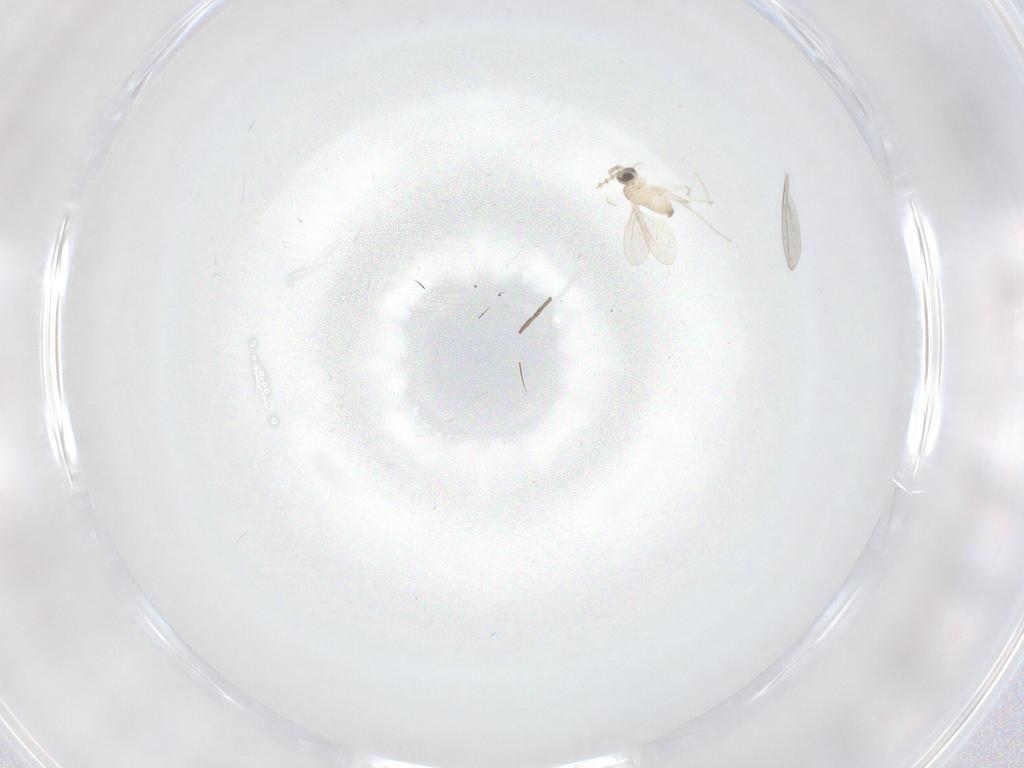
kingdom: Animalia
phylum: Arthropoda
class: Insecta
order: Diptera
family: Cecidomyiidae
